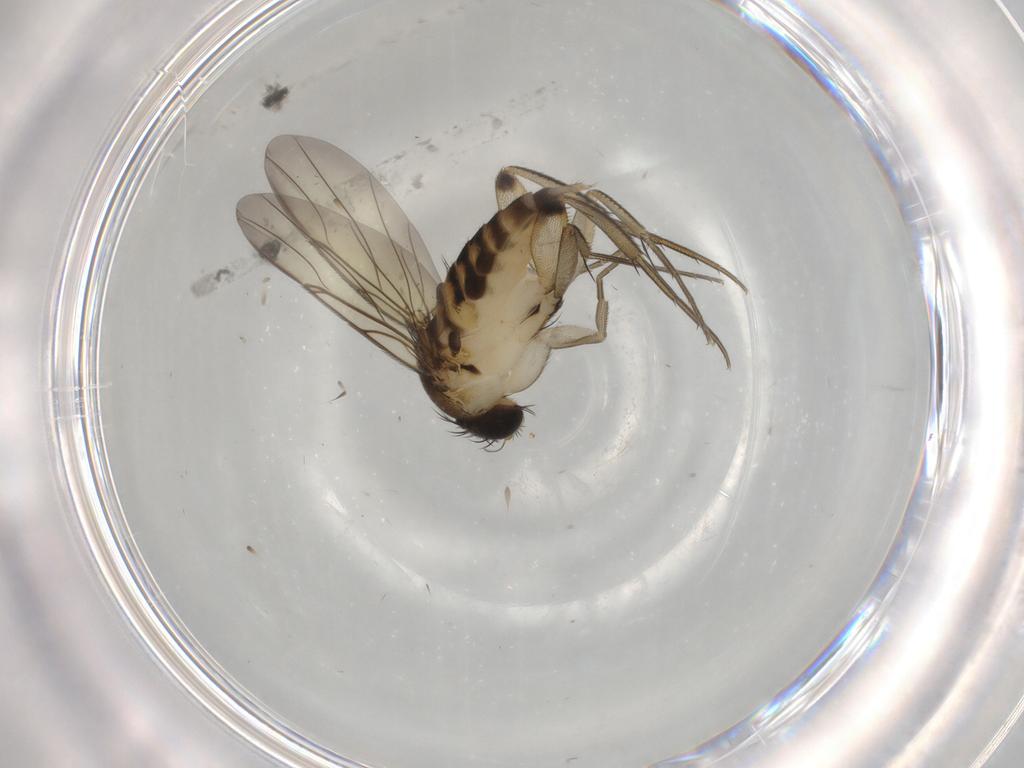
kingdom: Animalia
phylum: Arthropoda
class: Insecta
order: Diptera
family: Phoridae
